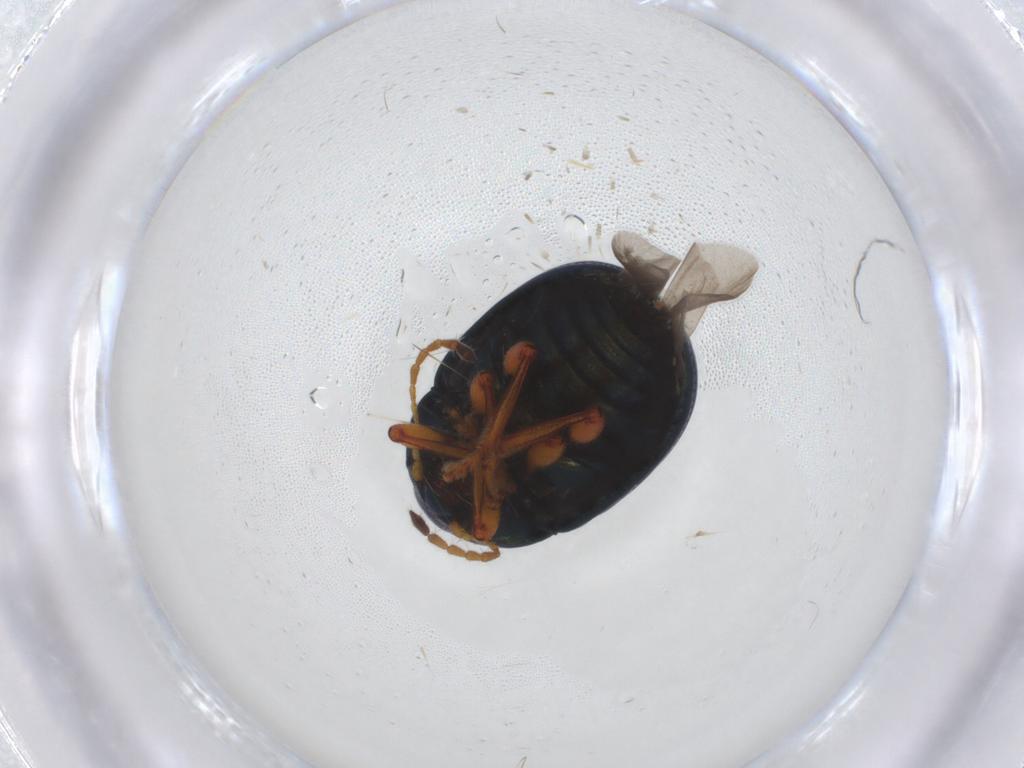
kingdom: Animalia
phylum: Arthropoda
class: Insecta
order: Coleoptera
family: Chrysomelidae
